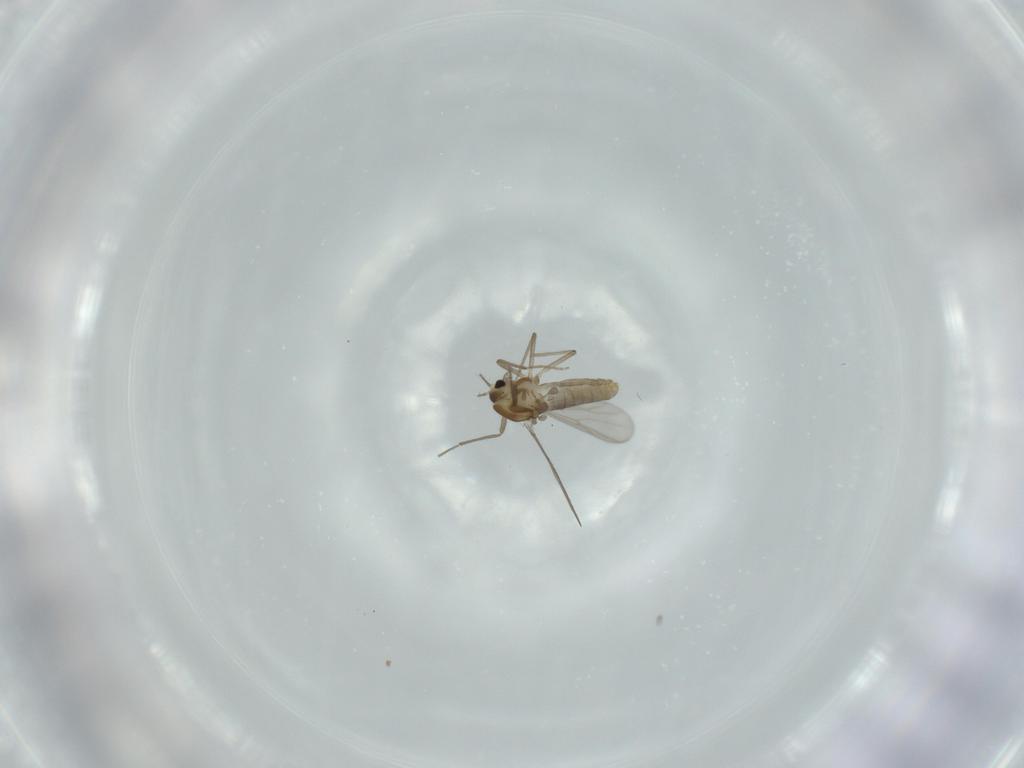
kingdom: Animalia
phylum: Arthropoda
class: Insecta
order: Diptera
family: Chironomidae
